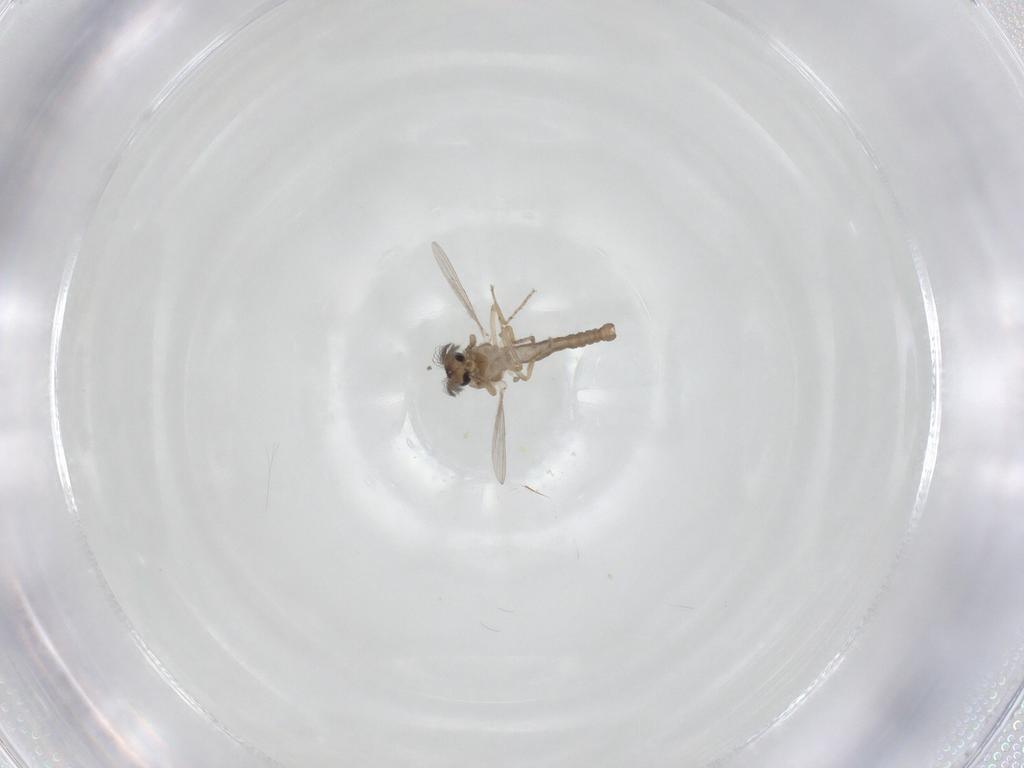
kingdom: Animalia
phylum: Arthropoda
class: Insecta
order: Diptera
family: Ceratopogonidae
